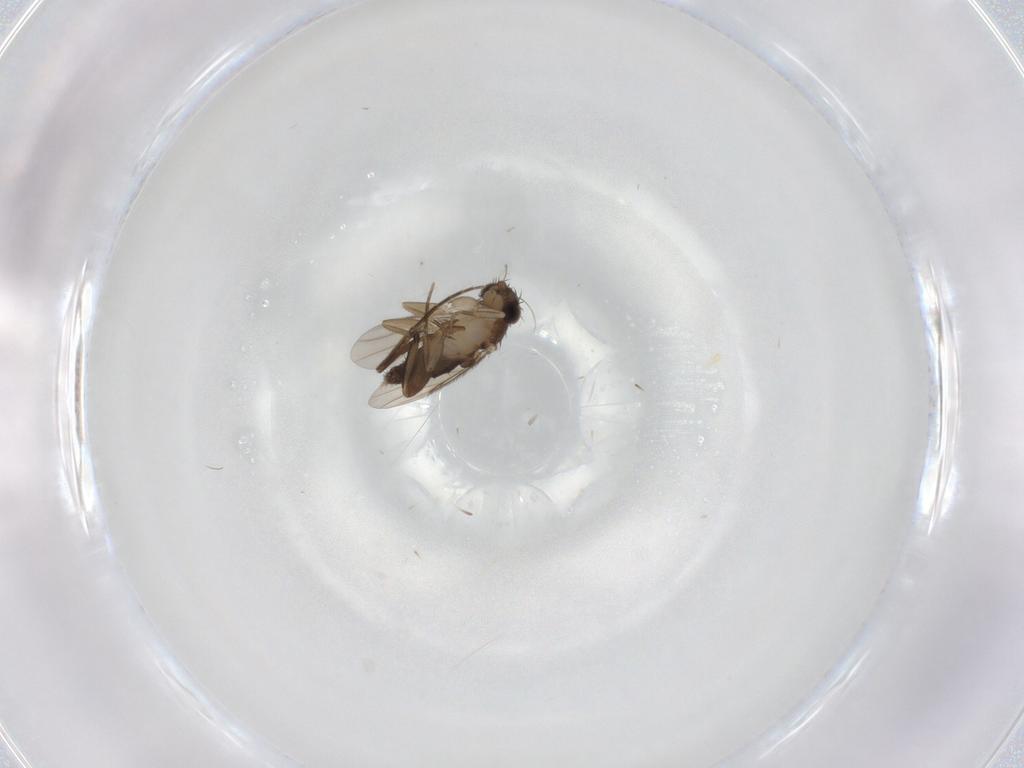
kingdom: Animalia
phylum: Arthropoda
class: Insecta
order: Diptera
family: Phoridae
